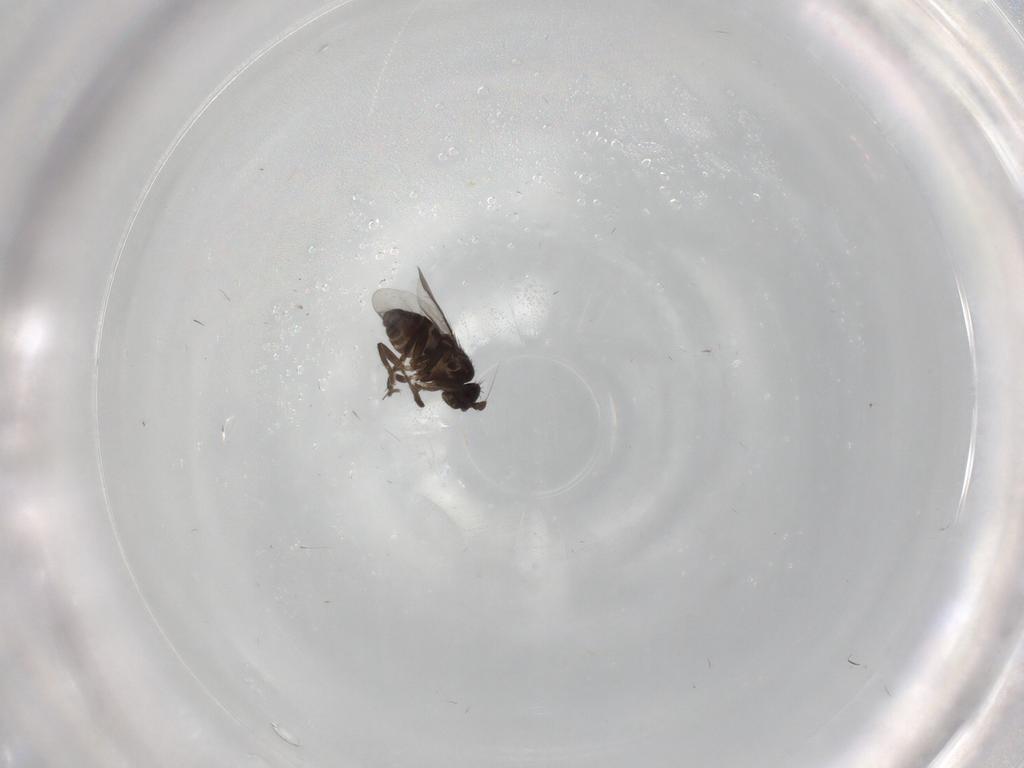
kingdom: Animalia
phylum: Arthropoda
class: Insecta
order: Diptera
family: Sphaeroceridae
